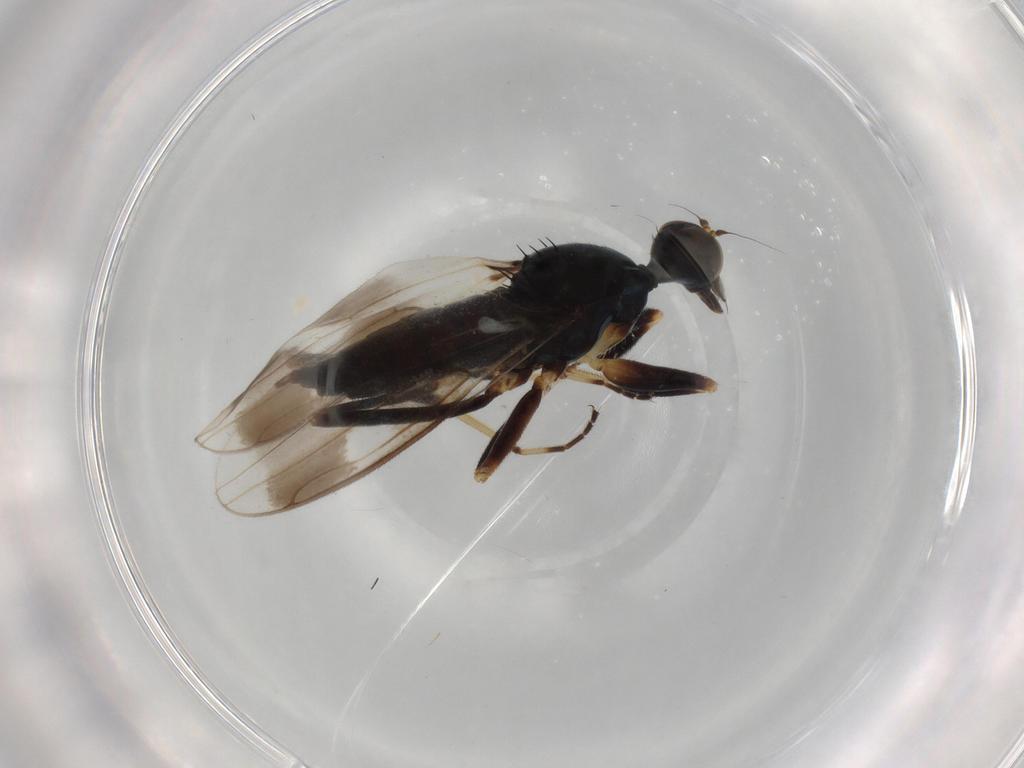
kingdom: Animalia
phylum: Arthropoda
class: Insecta
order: Diptera
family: Hybotidae
